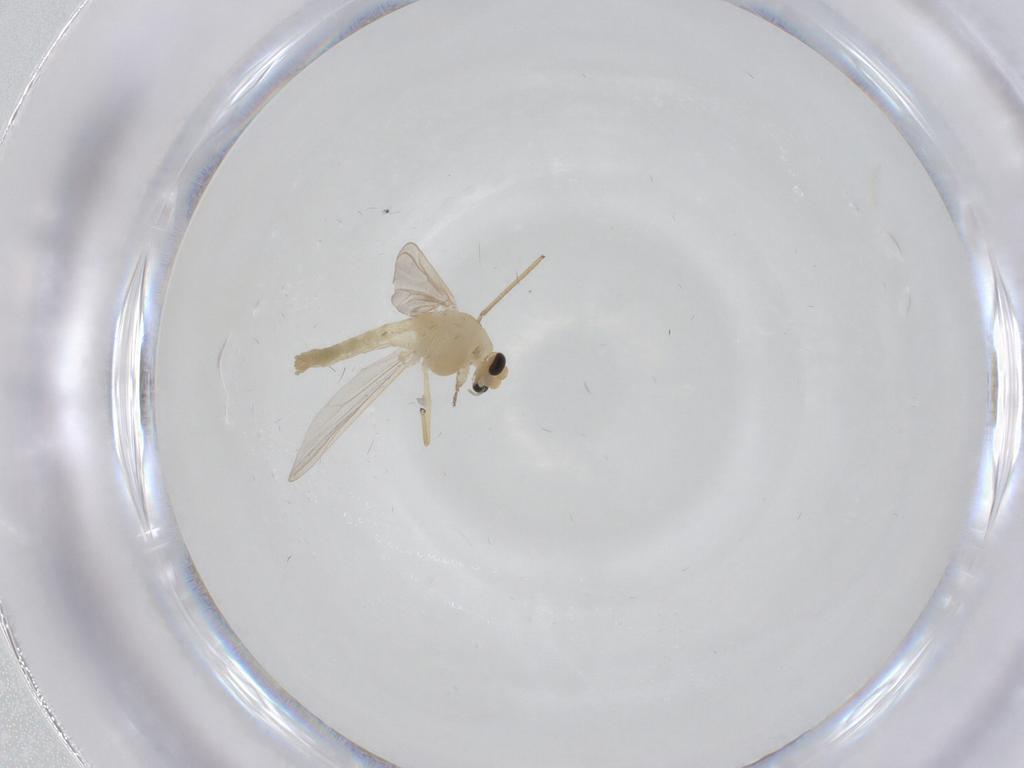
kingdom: Animalia
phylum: Arthropoda
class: Insecta
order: Diptera
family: Chironomidae
